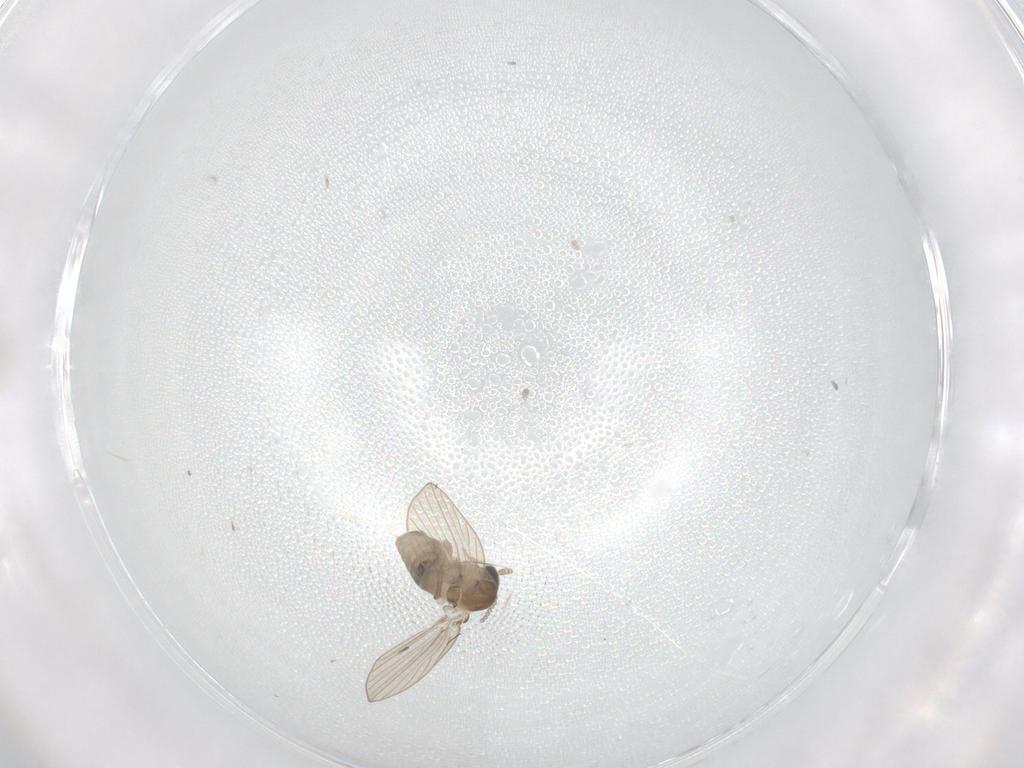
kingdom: Animalia
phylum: Arthropoda
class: Insecta
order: Diptera
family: Psychodidae
